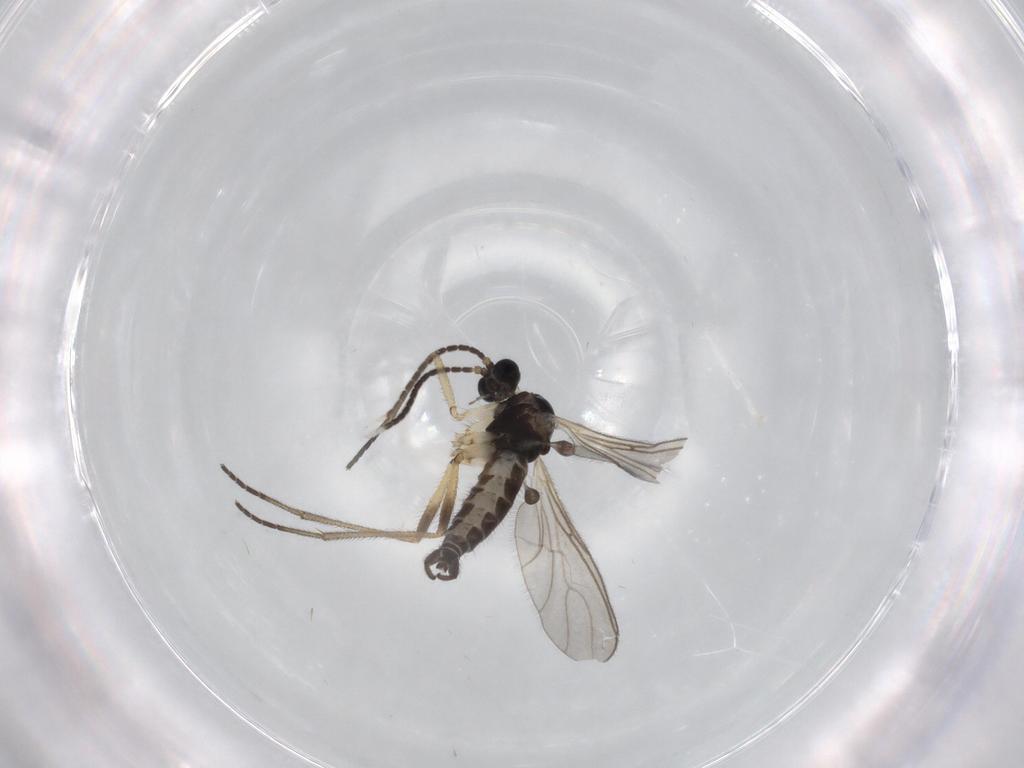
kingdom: Animalia
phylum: Arthropoda
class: Insecta
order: Diptera
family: Sciaridae
